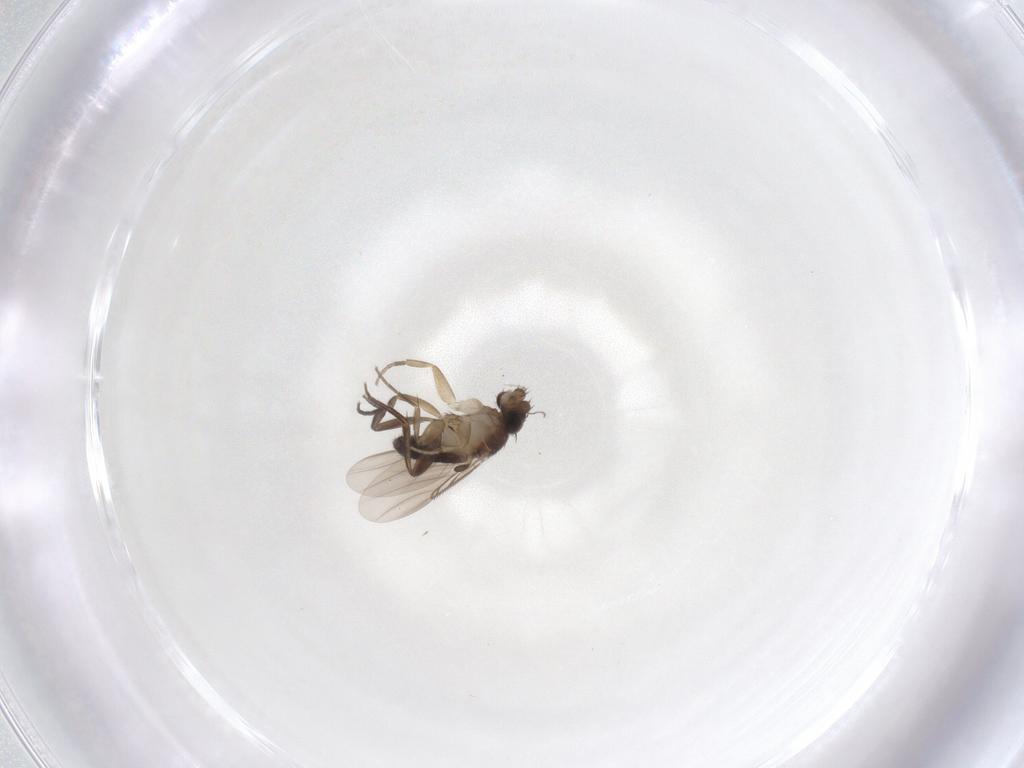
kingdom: Animalia
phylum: Arthropoda
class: Insecta
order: Diptera
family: Phoridae
